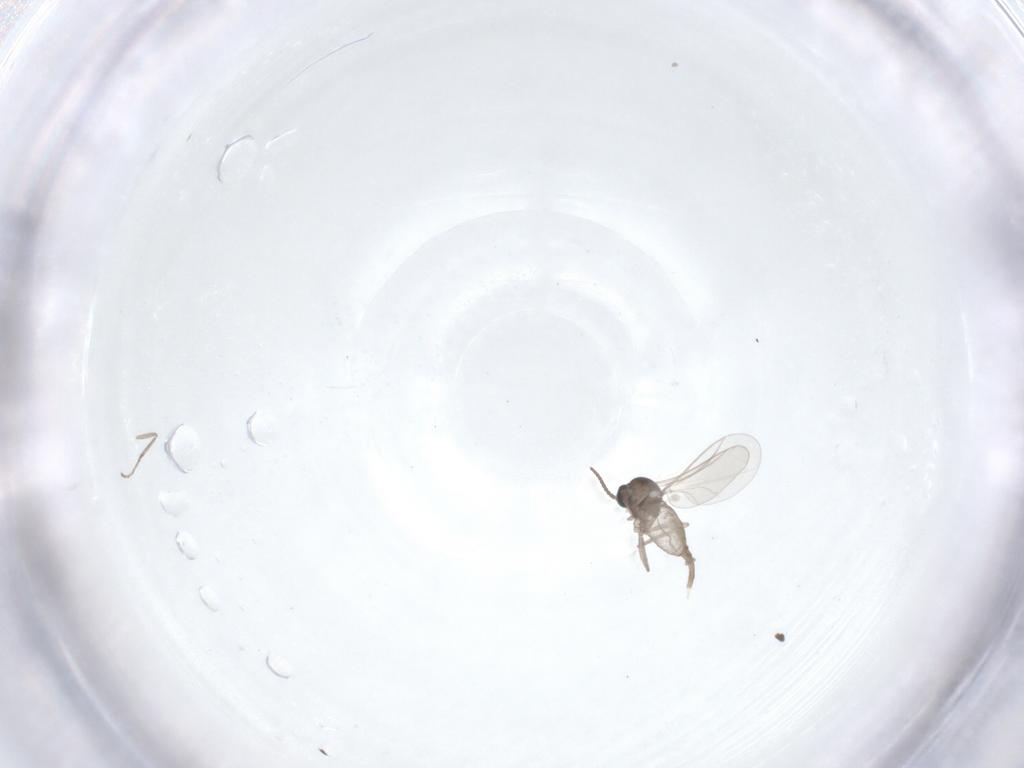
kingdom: Animalia
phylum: Arthropoda
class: Insecta
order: Diptera
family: Cecidomyiidae
